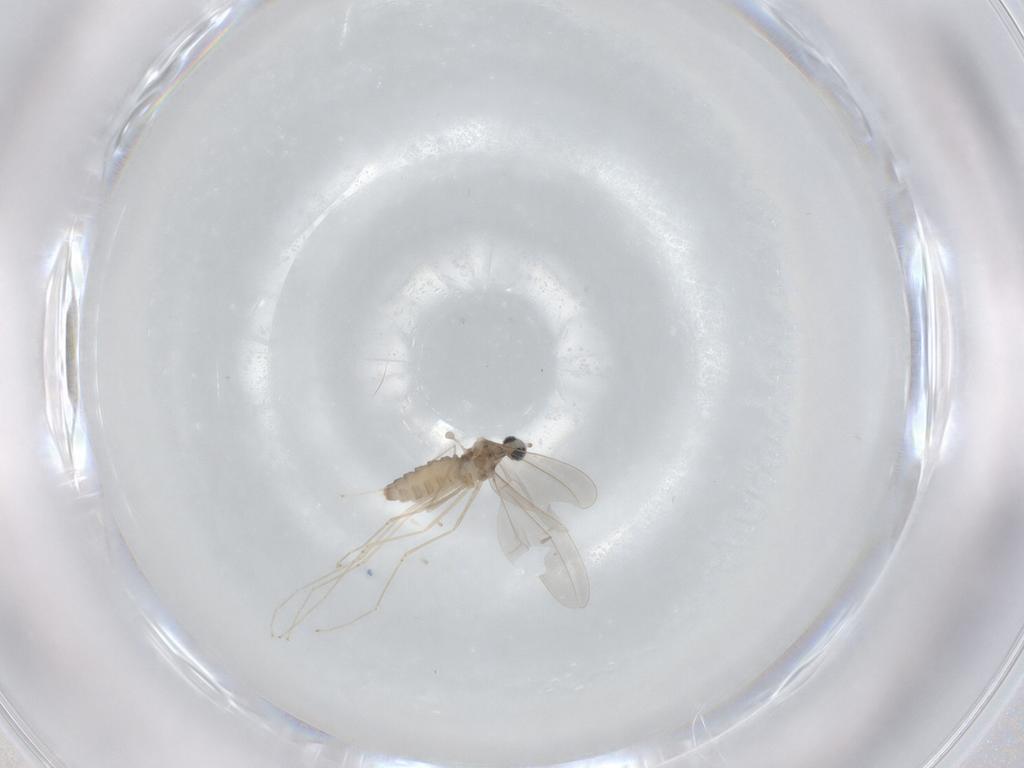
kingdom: Animalia
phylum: Arthropoda
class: Insecta
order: Diptera
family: Cecidomyiidae
